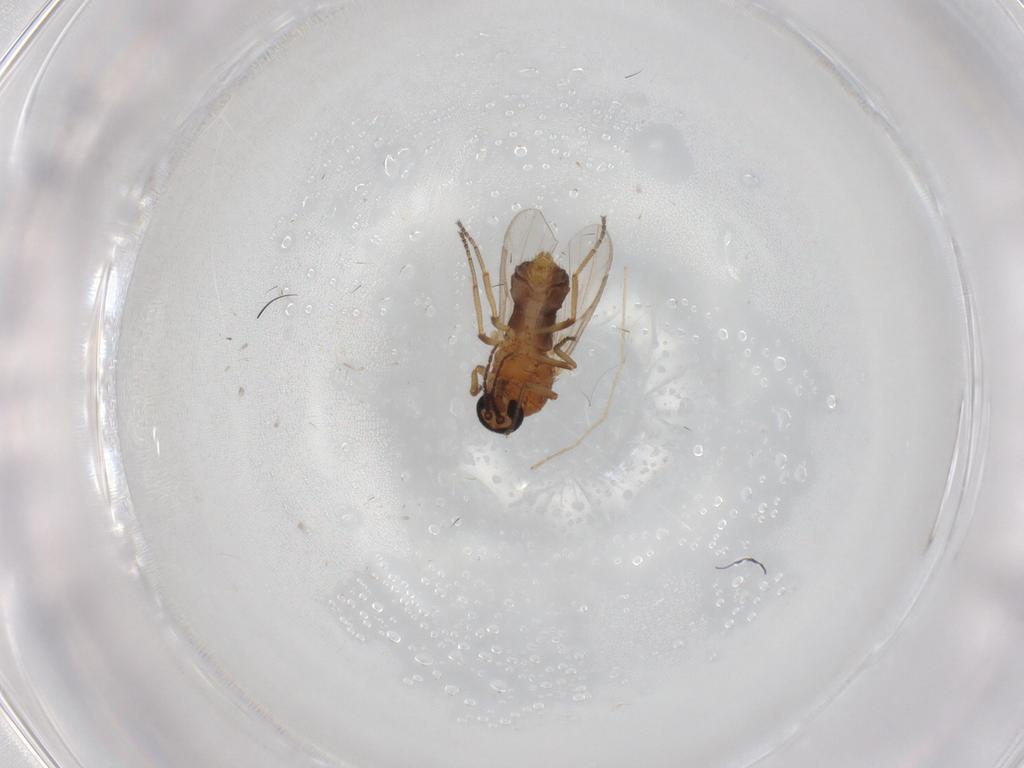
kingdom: Animalia
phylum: Arthropoda
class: Insecta
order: Diptera
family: Ceratopogonidae
